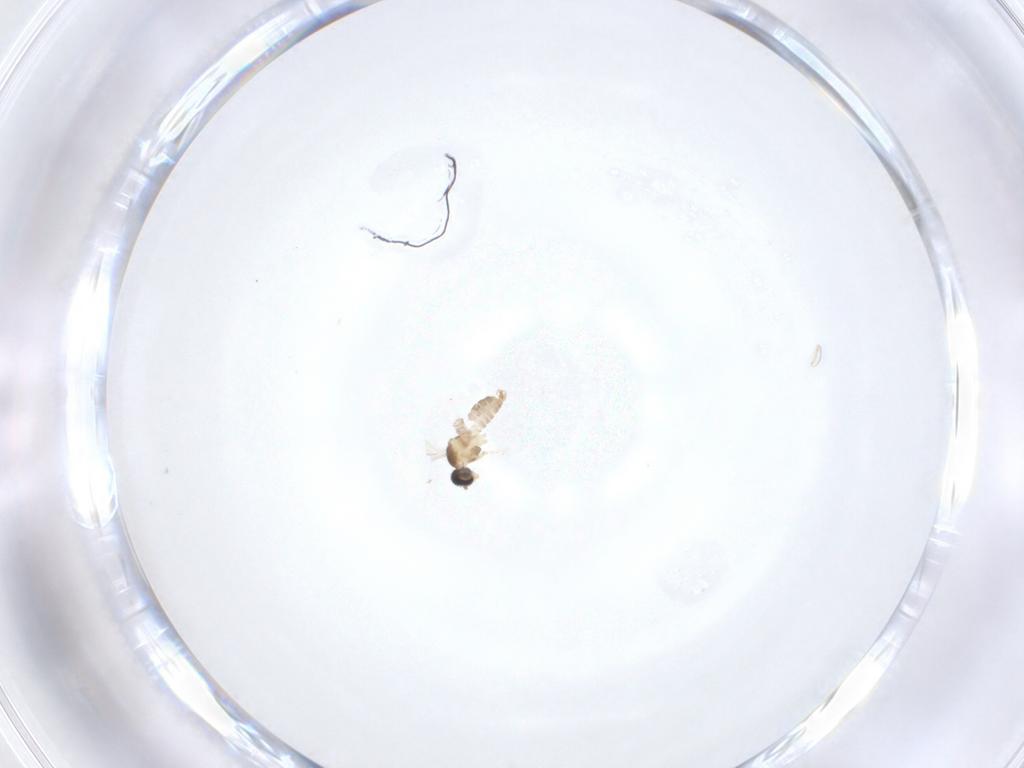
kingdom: Animalia
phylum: Arthropoda
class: Insecta
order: Diptera
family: Cecidomyiidae
